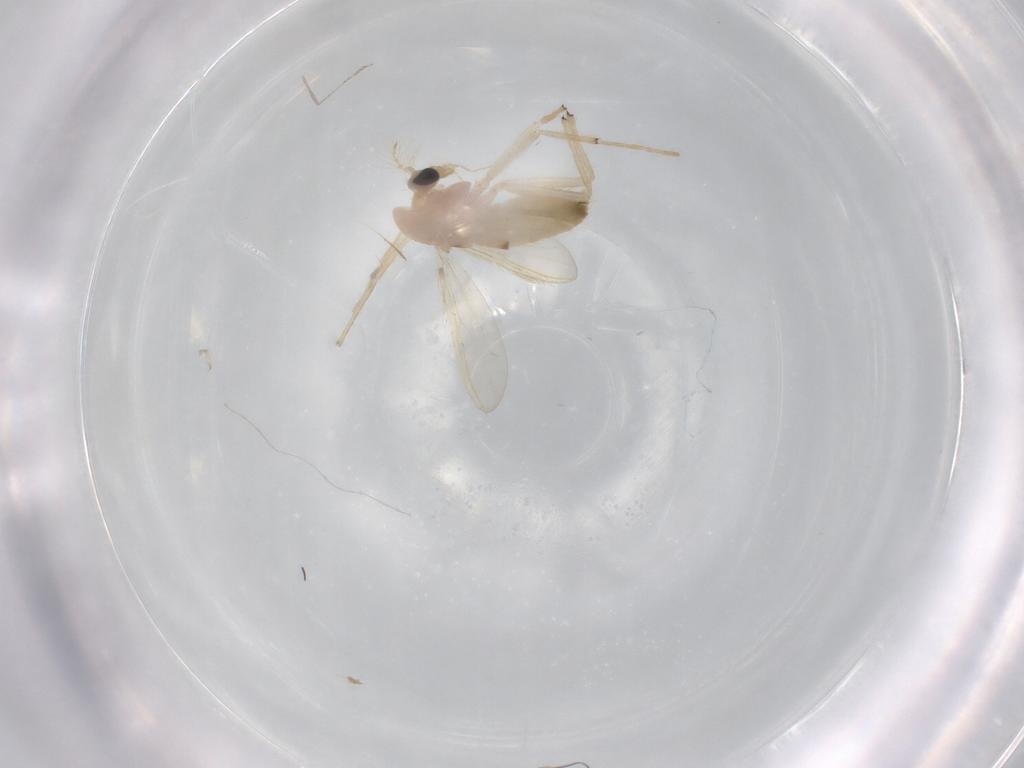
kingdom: Animalia
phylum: Arthropoda
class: Insecta
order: Diptera
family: Chironomidae
